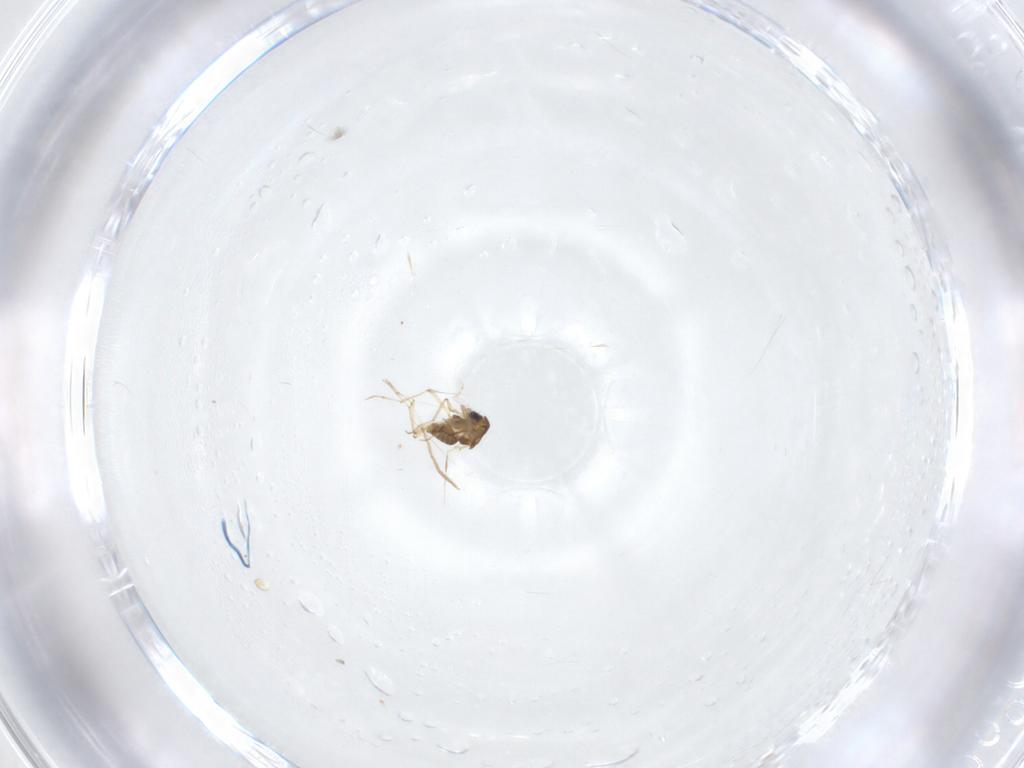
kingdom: Animalia
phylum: Arthropoda
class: Insecta
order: Diptera
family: Chironomidae
